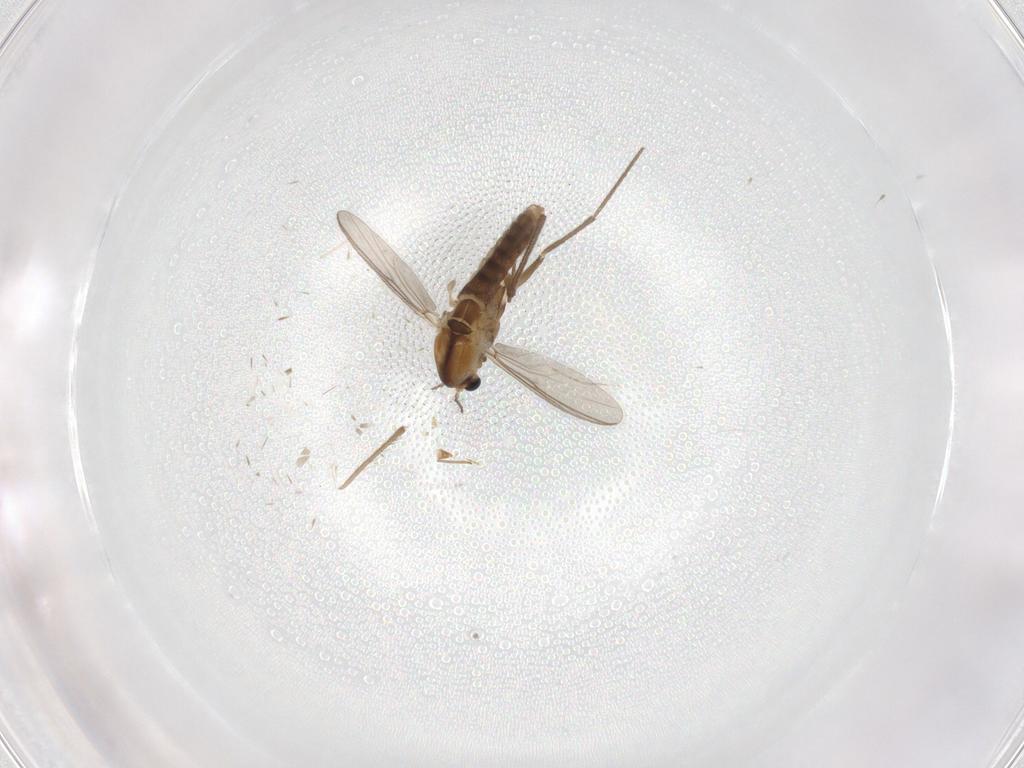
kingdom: Animalia
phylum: Arthropoda
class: Insecta
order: Diptera
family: Chironomidae
